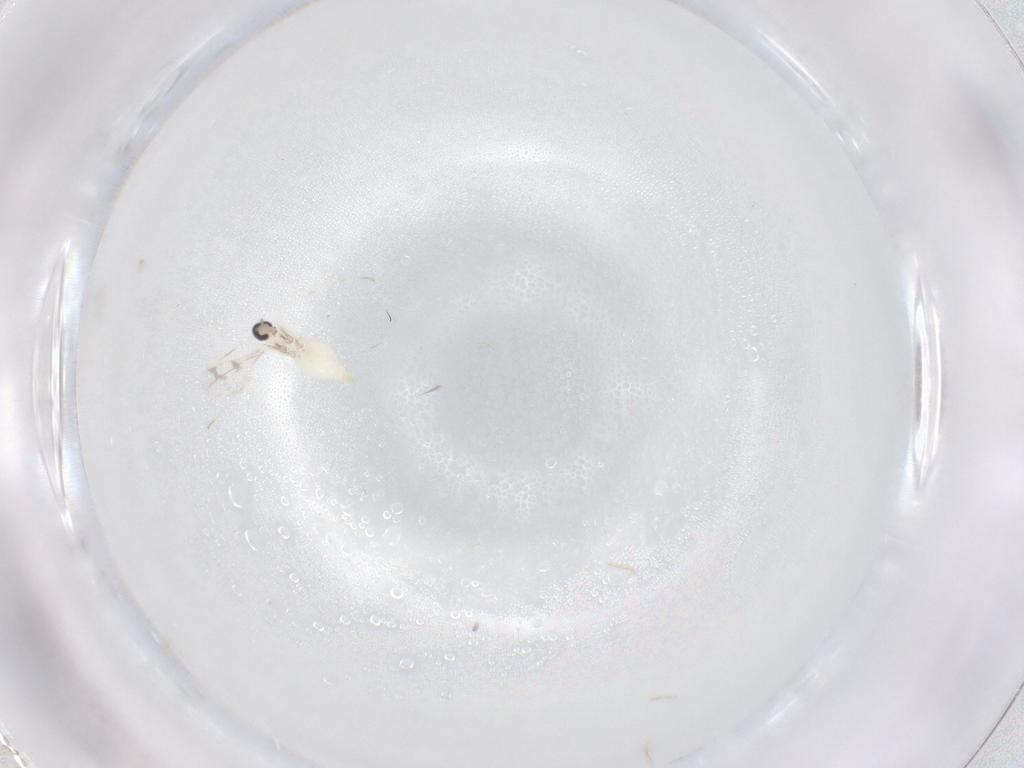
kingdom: Animalia
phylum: Arthropoda
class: Insecta
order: Diptera
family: Cecidomyiidae
